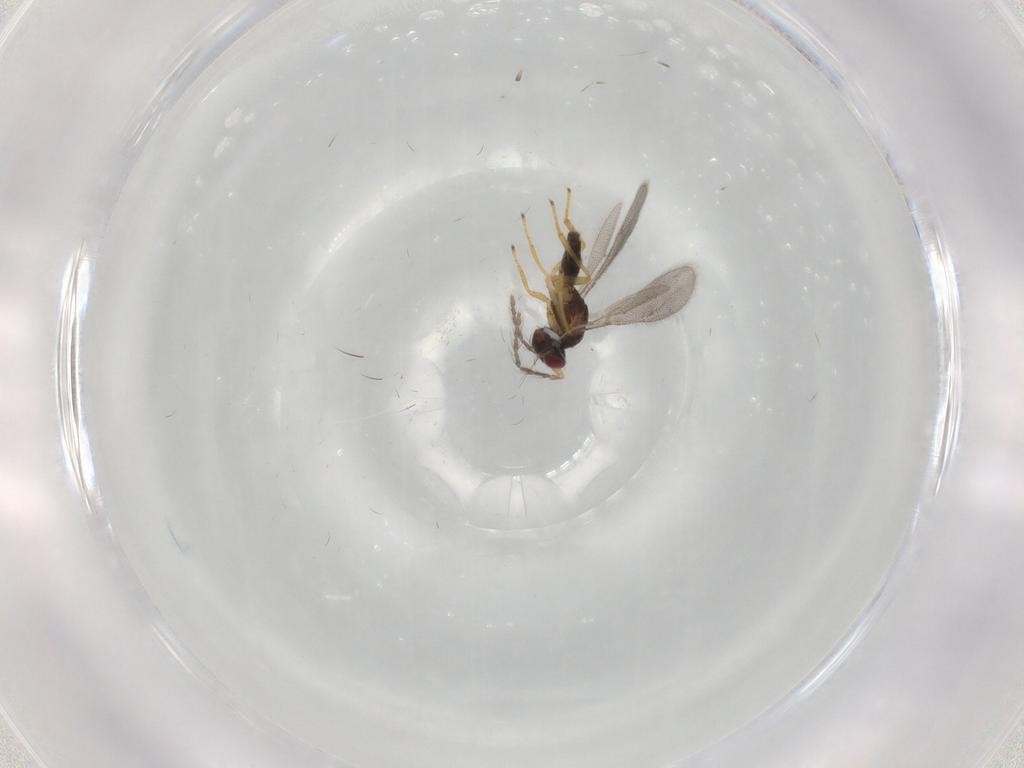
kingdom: Animalia
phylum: Arthropoda
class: Insecta
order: Hymenoptera
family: Eulophidae
